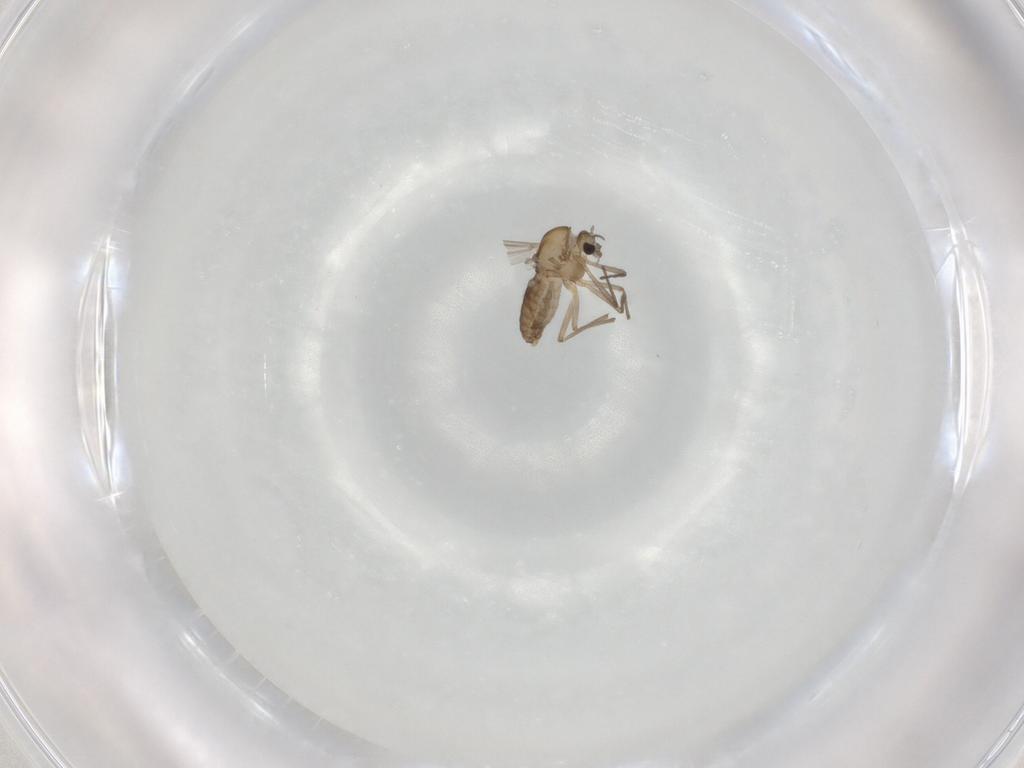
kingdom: Animalia
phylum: Arthropoda
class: Insecta
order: Diptera
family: Chironomidae
